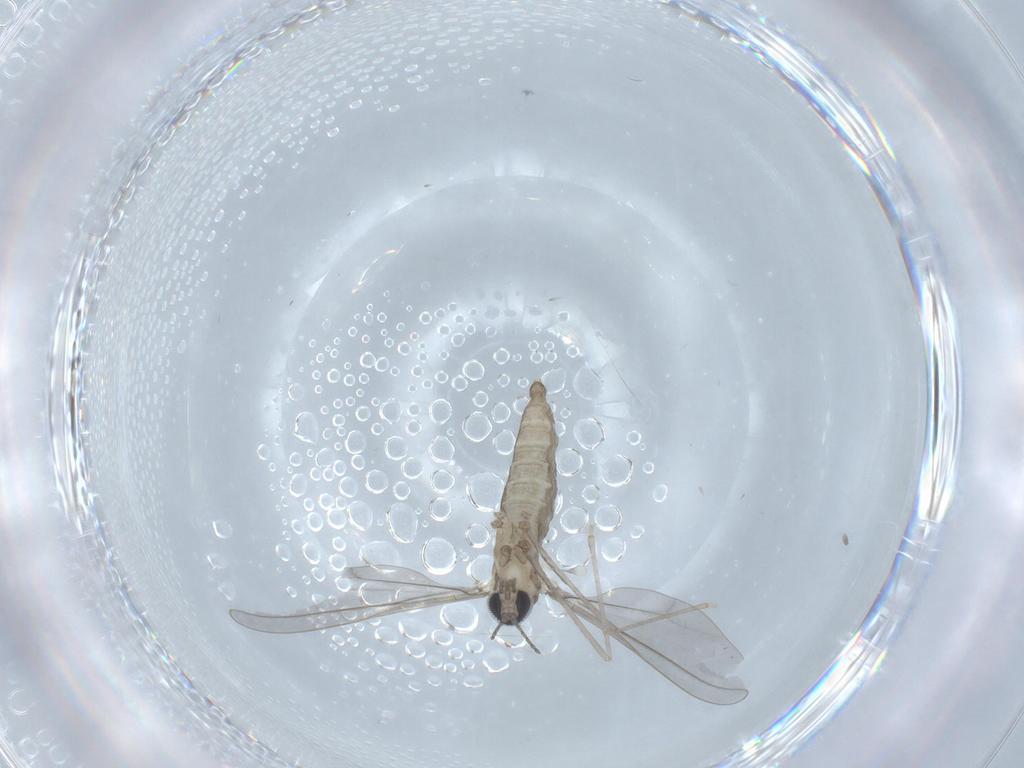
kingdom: Animalia
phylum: Arthropoda
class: Insecta
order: Diptera
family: Cecidomyiidae
